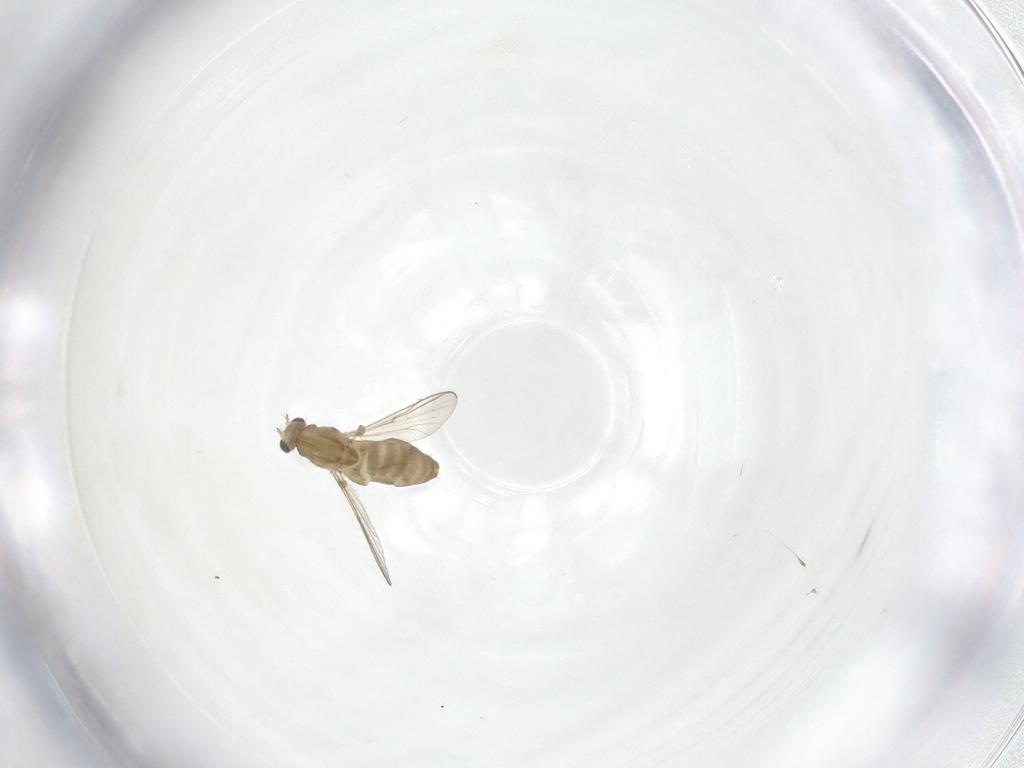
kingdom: Animalia
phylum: Arthropoda
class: Insecta
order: Diptera
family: Chironomidae
